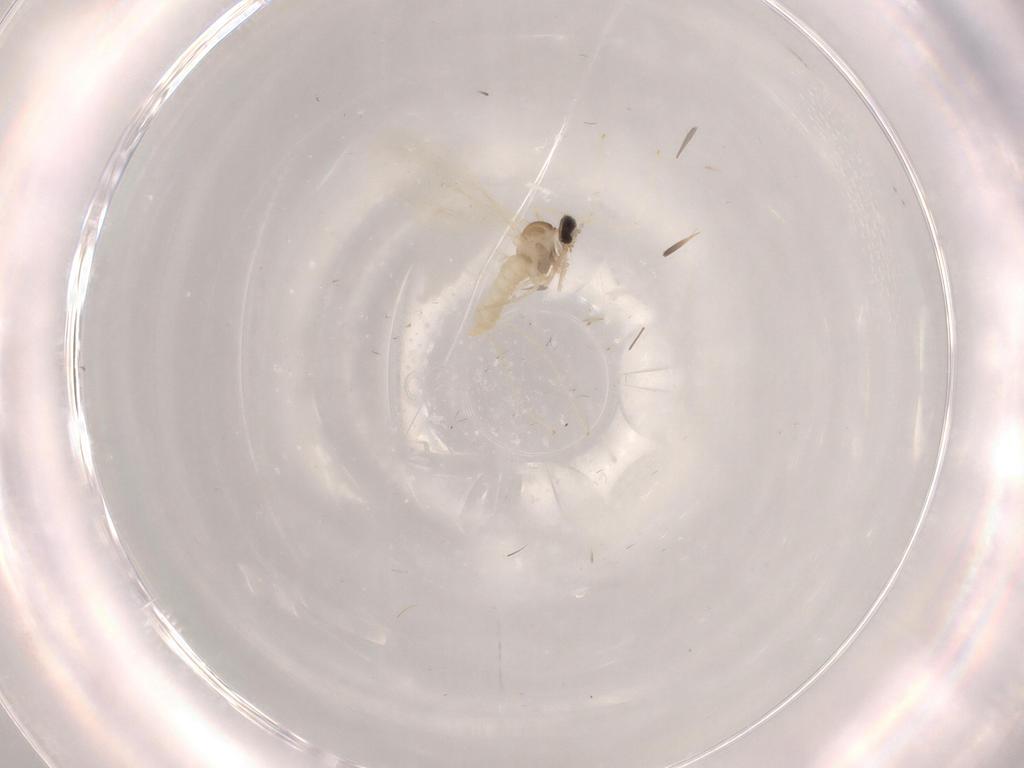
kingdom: Animalia
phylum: Arthropoda
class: Insecta
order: Diptera
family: Cecidomyiidae
